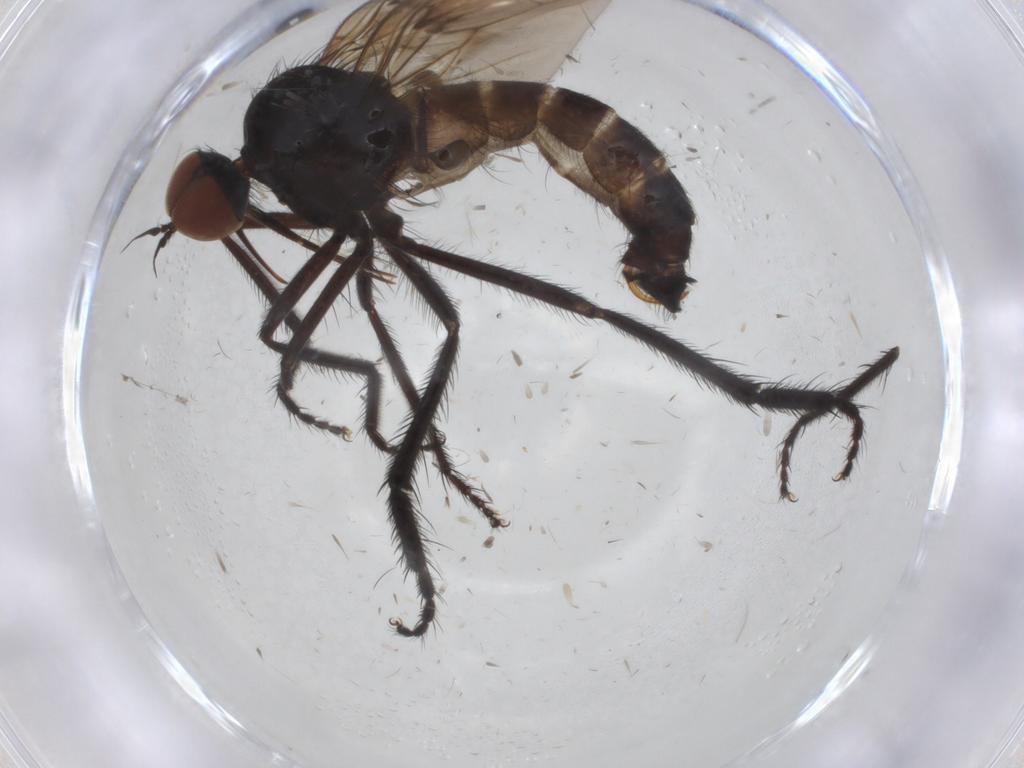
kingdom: Animalia
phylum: Arthropoda
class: Insecta
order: Diptera
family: Empididae
